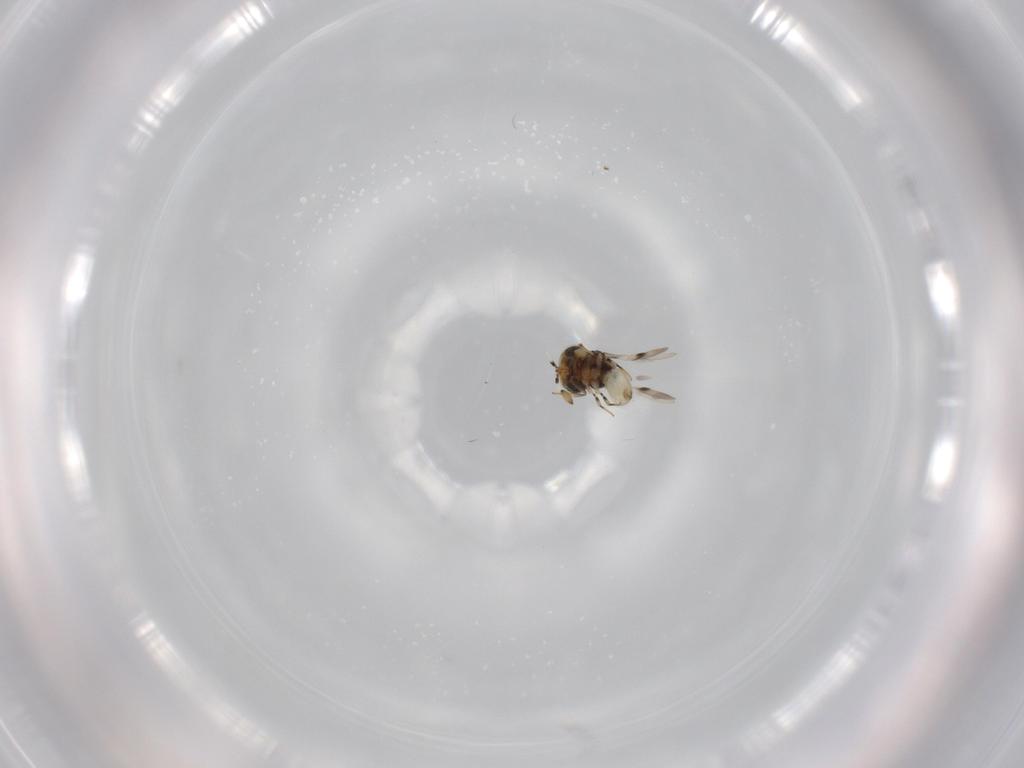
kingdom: Animalia
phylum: Arthropoda
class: Insecta
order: Hymenoptera
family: Scelionidae
